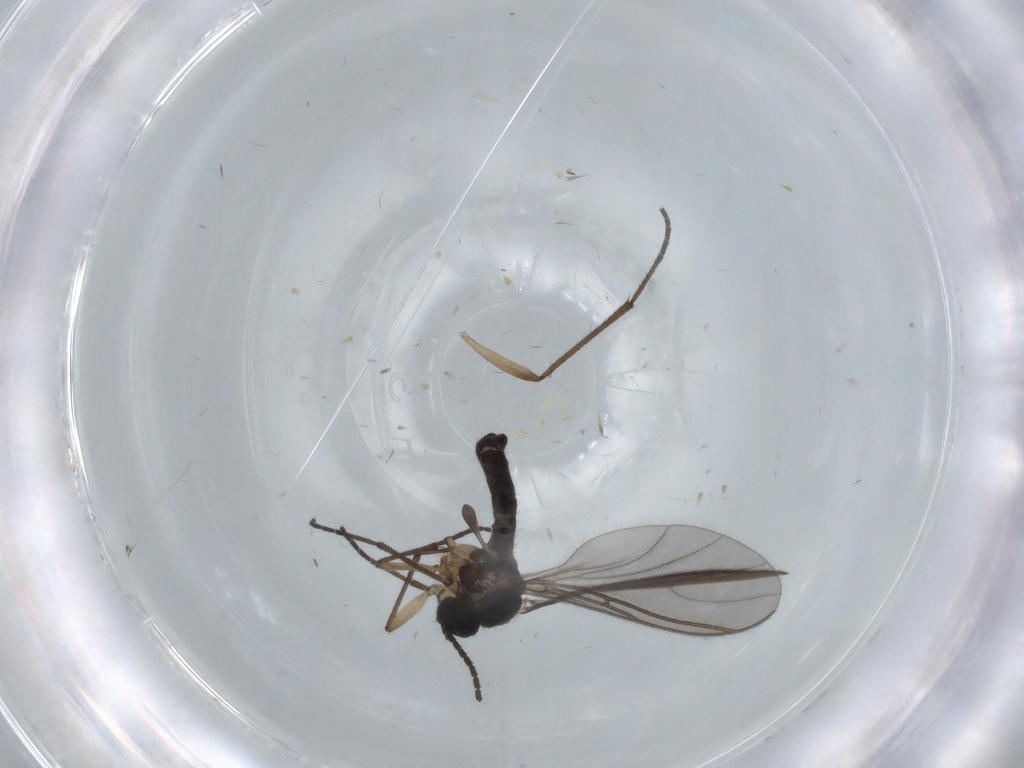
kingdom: Animalia
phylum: Arthropoda
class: Insecta
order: Diptera
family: Sciaridae
